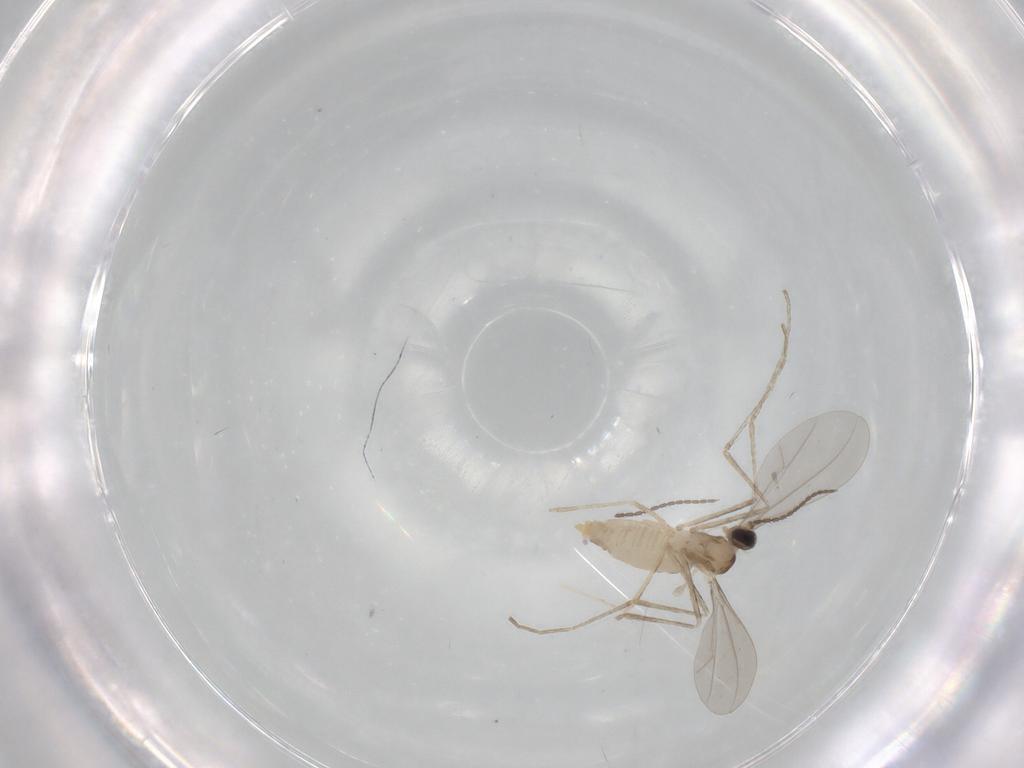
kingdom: Animalia
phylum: Arthropoda
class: Insecta
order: Diptera
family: Cecidomyiidae
